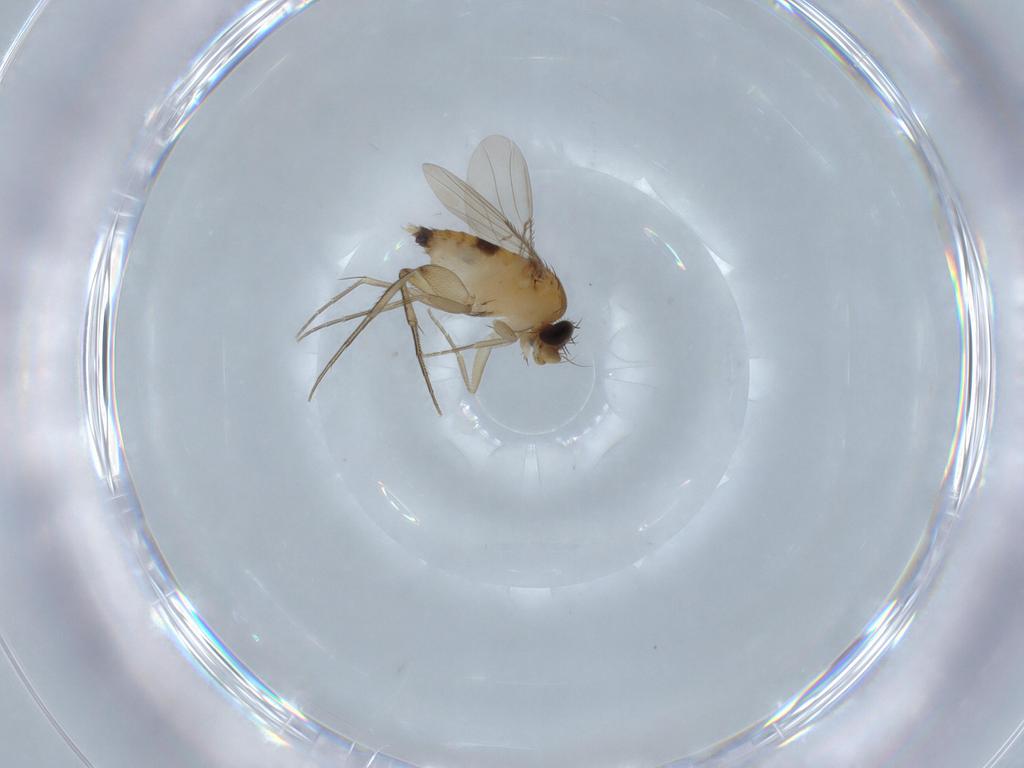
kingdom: Animalia
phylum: Arthropoda
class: Insecta
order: Diptera
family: Phoridae
